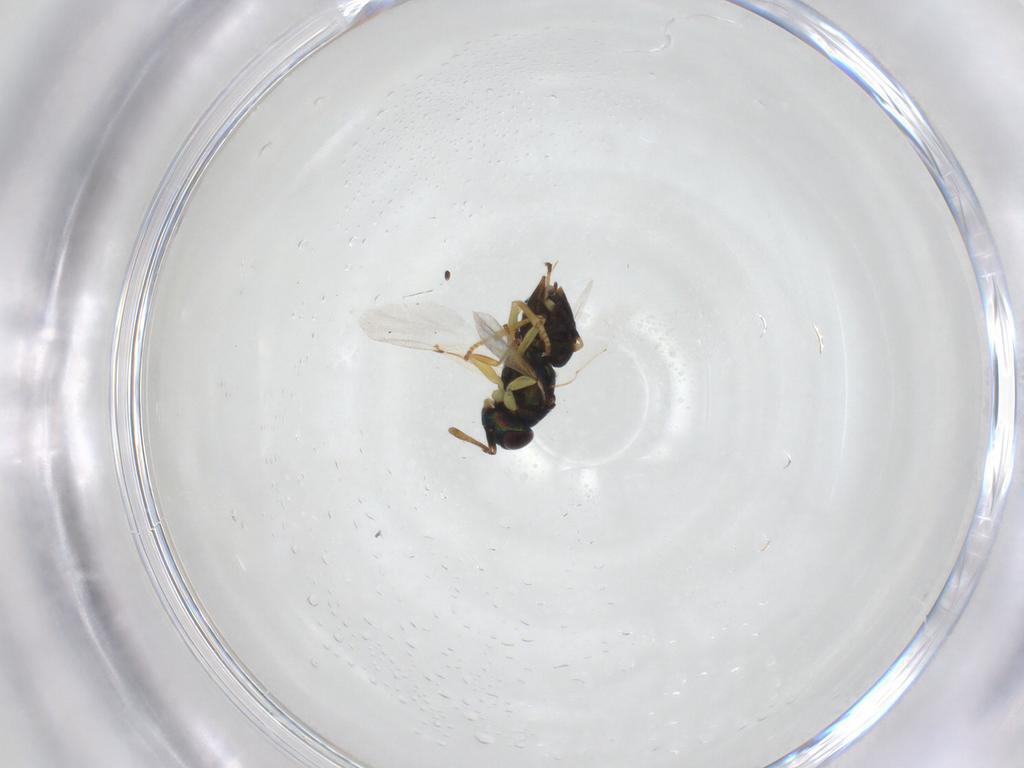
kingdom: Animalia
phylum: Arthropoda
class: Insecta
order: Hymenoptera
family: Encyrtidae
